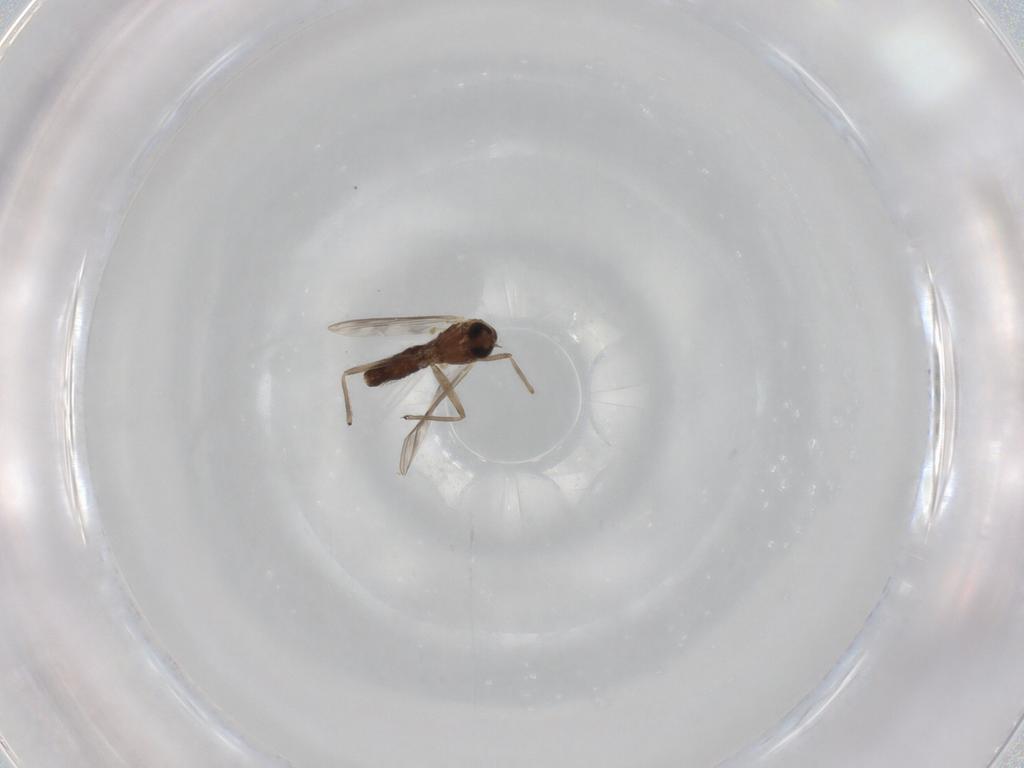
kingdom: Animalia
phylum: Arthropoda
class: Insecta
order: Diptera
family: Chironomidae
